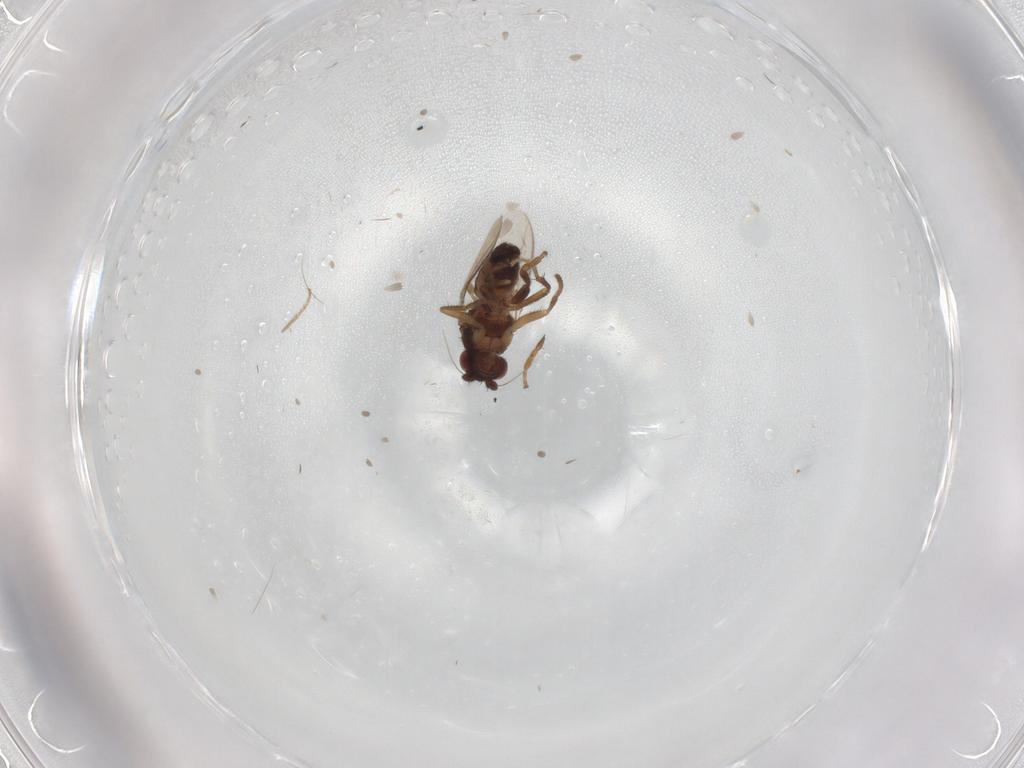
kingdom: Animalia
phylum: Arthropoda
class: Insecta
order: Diptera
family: Sphaeroceridae
